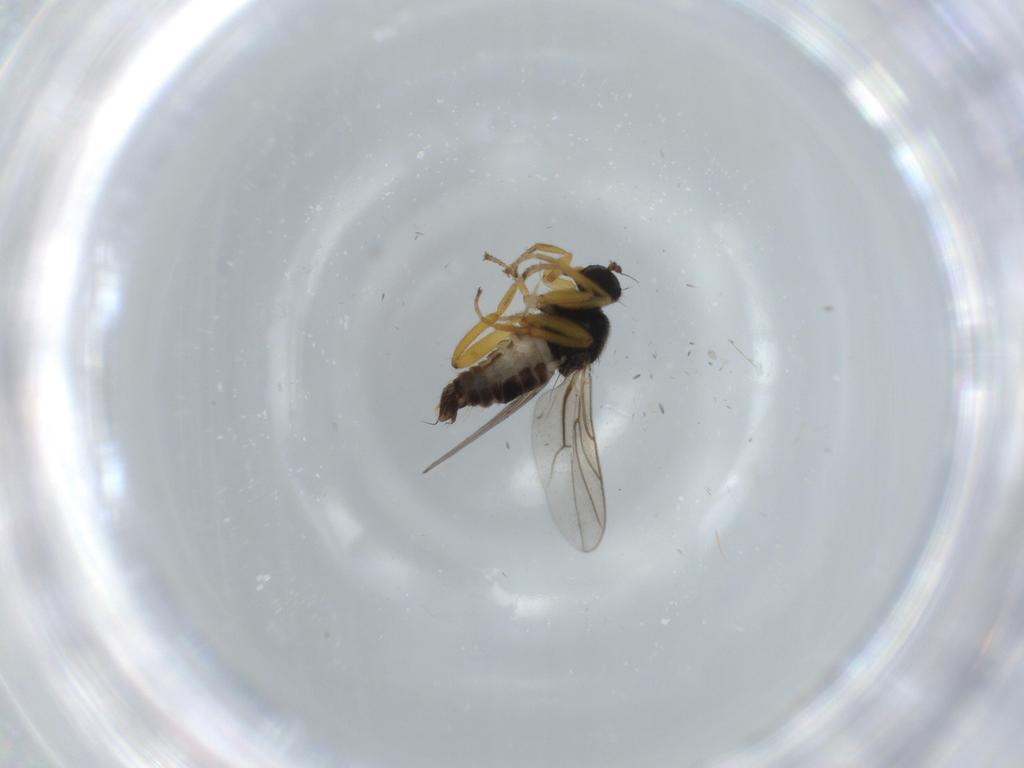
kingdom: Animalia
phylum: Arthropoda
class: Insecta
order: Diptera
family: Hybotidae
